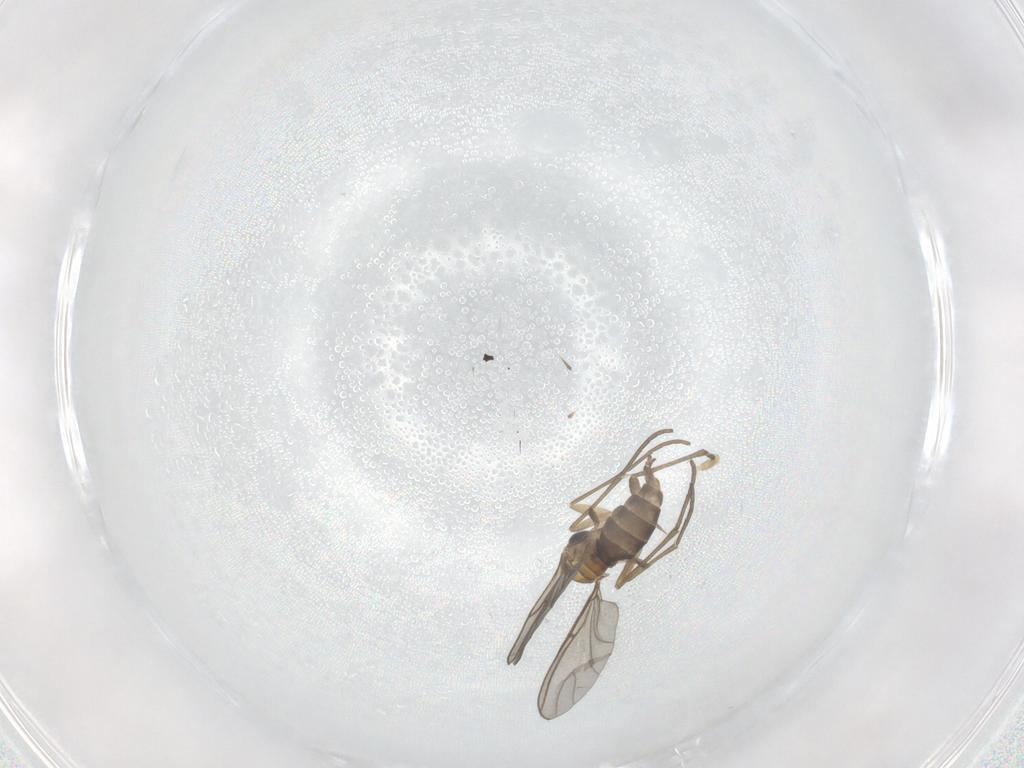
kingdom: Animalia
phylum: Arthropoda
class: Insecta
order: Diptera
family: Sciaridae
